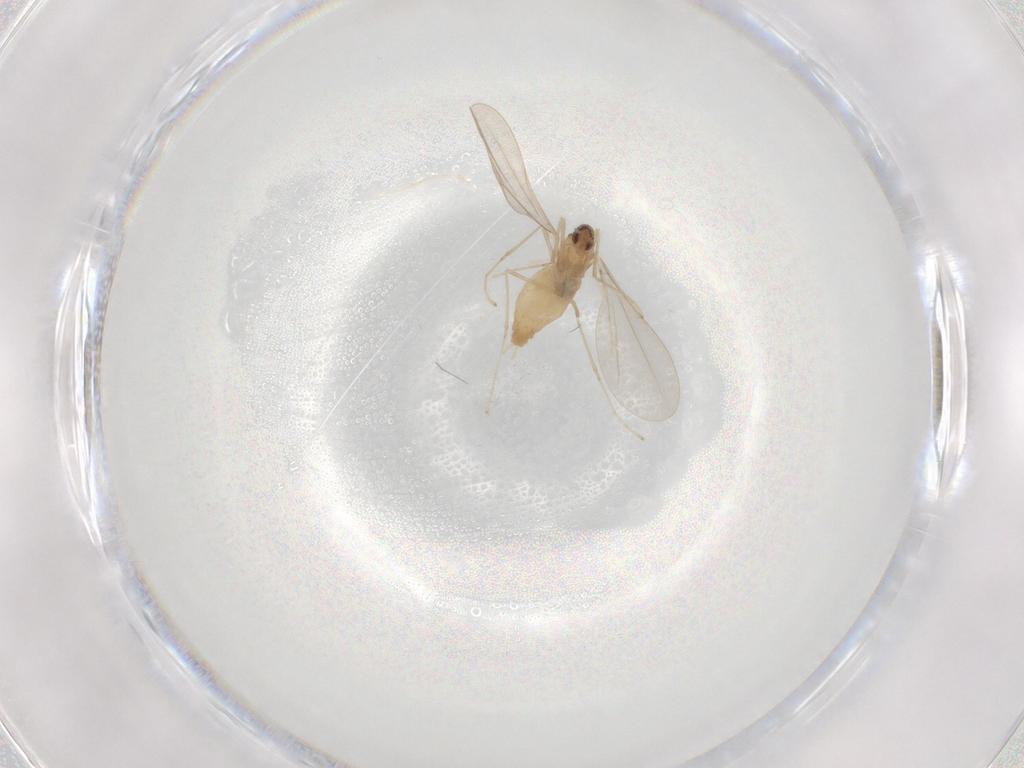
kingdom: Animalia
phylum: Arthropoda
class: Insecta
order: Diptera
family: Cecidomyiidae
